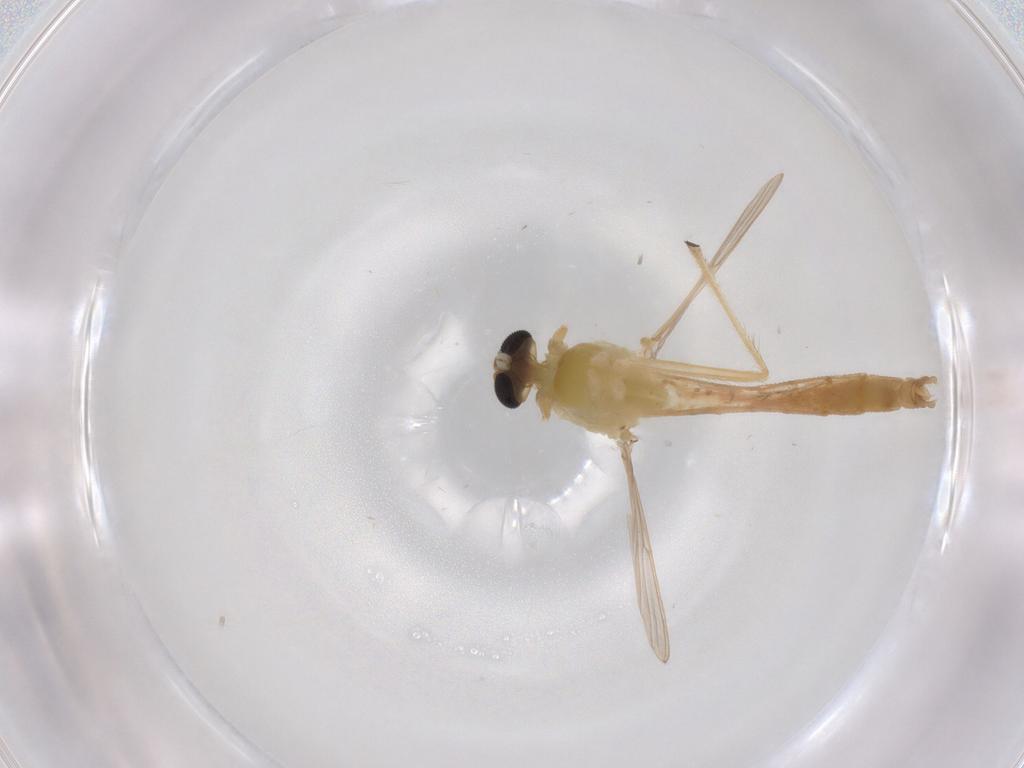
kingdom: Animalia
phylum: Arthropoda
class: Insecta
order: Diptera
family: Chironomidae
